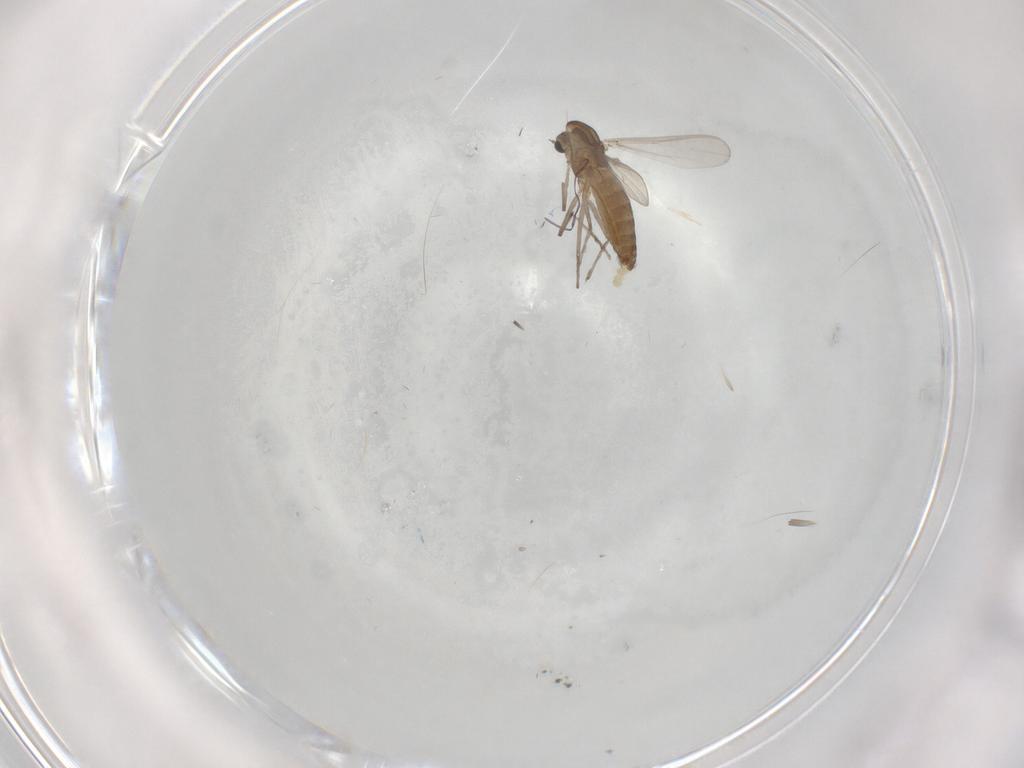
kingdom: Animalia
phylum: Arthropoda
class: Insecta
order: Diptera
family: Chironomidae
